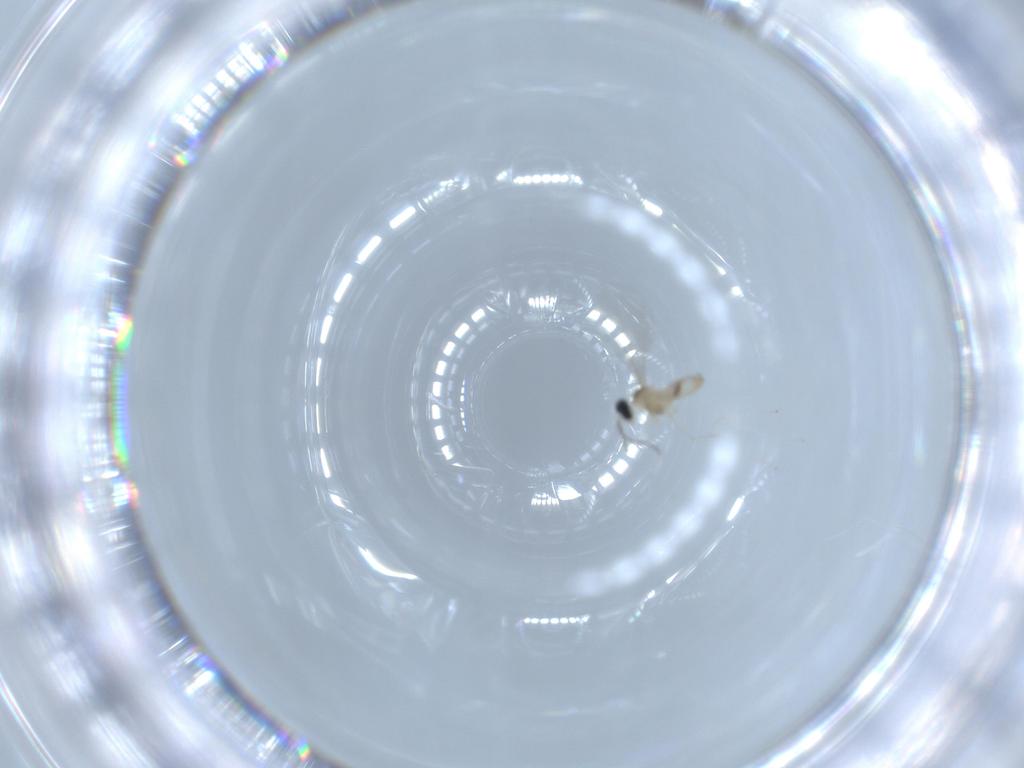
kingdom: Animalia
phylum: Arthropoda
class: Insecta
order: Diptera
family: Cecidomyiidae
